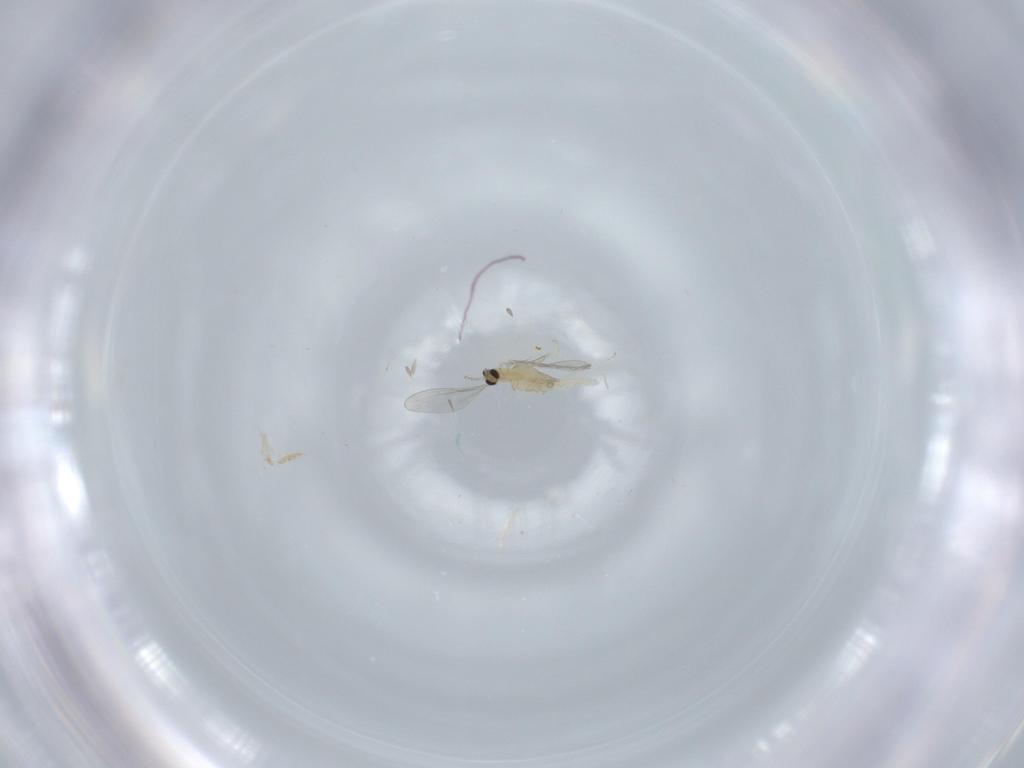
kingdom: Animalia
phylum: Arthropoda
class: Insecta
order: Diptera
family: Cecidomyiidae
